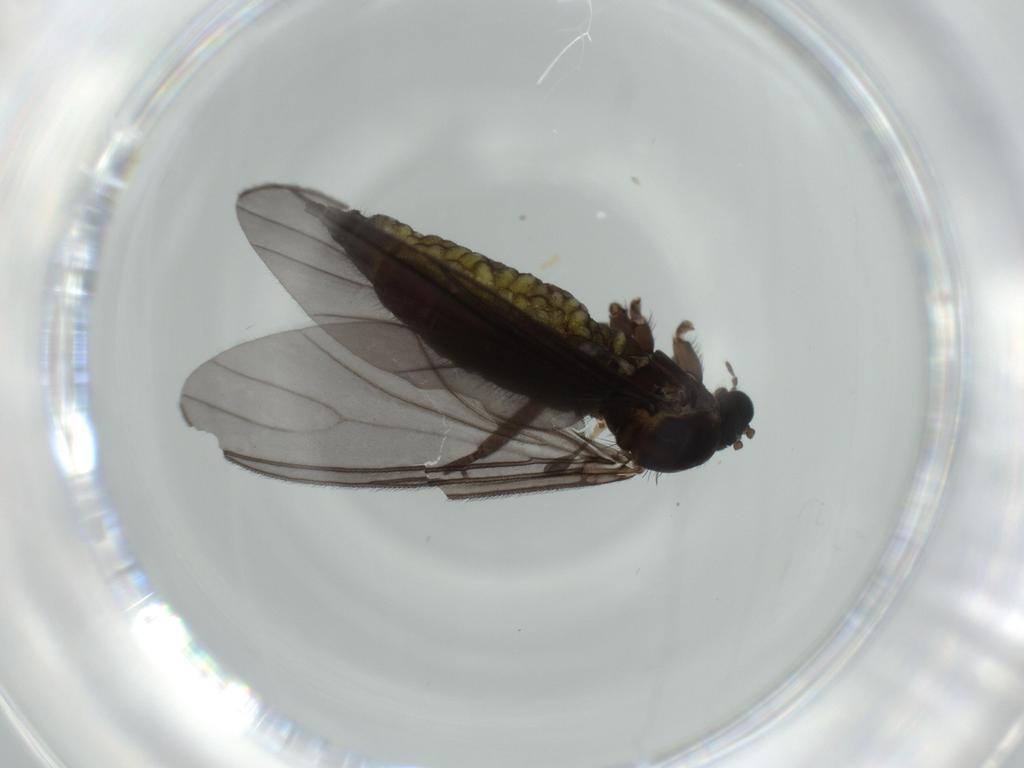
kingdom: Animalia
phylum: Arthropoda
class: Insecta
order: Diptera
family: Sciaridae
